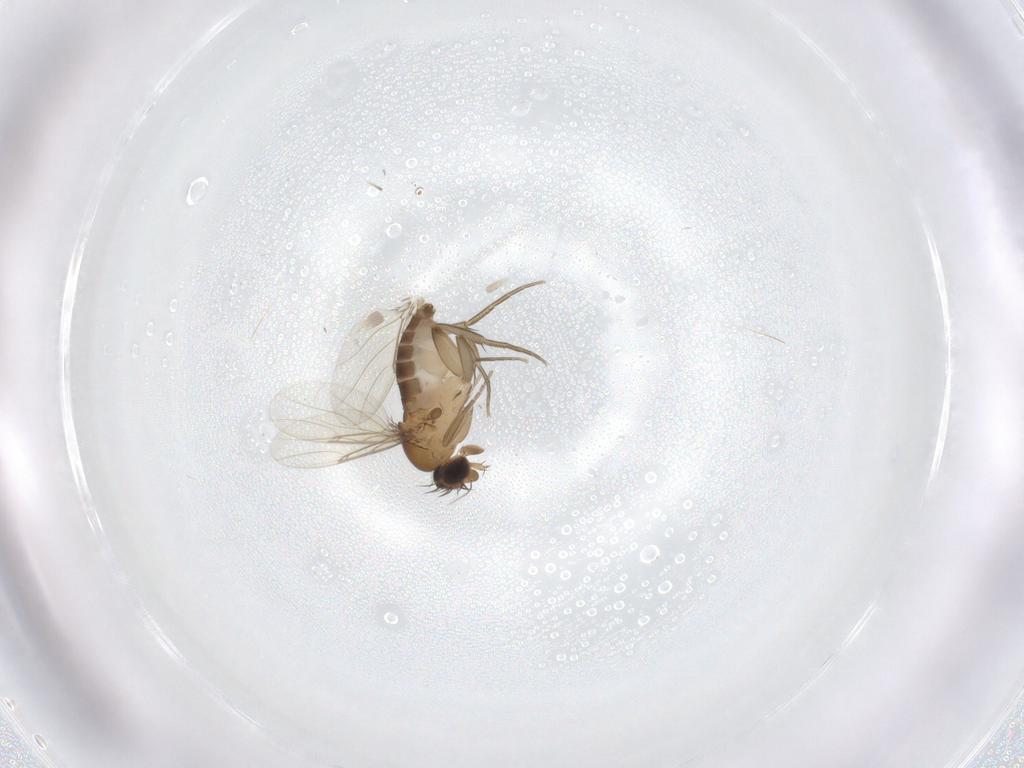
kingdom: Animalia
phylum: Arthropoda
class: Insecta
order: Diptera
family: Phoridae
